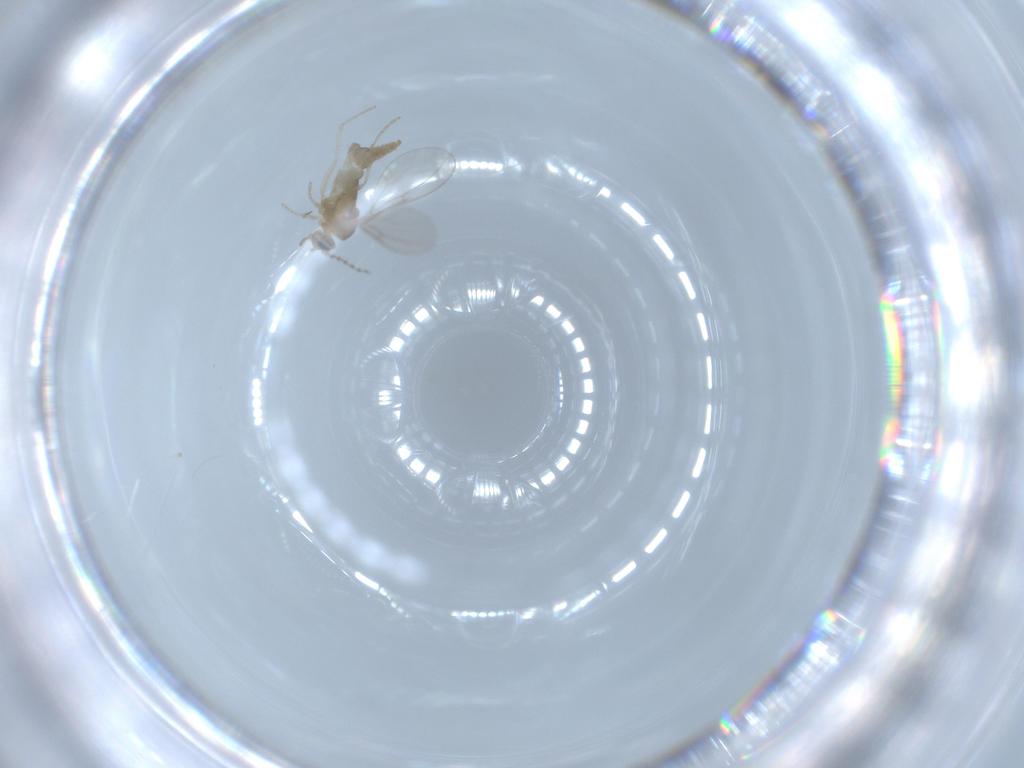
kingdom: Animalia
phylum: Arthropoda
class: Insecta
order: Diptera
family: Cecidomyiidae
